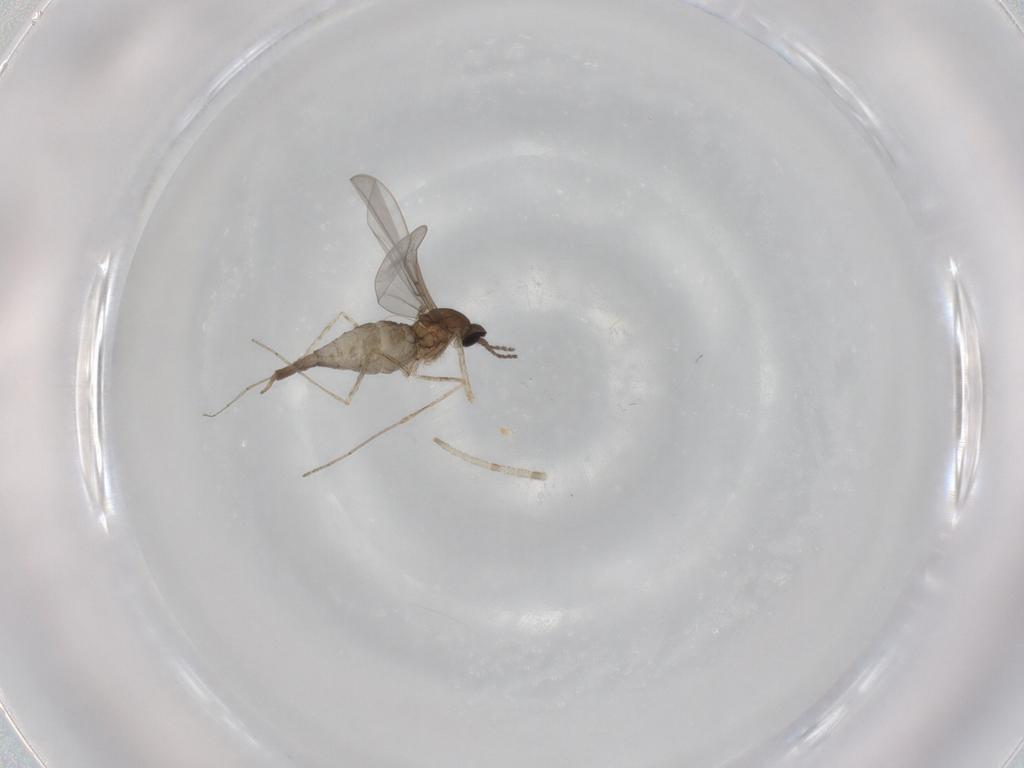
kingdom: Animalia
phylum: Arthropoda
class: Insecta
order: Diptera
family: Cecidomyiidae
